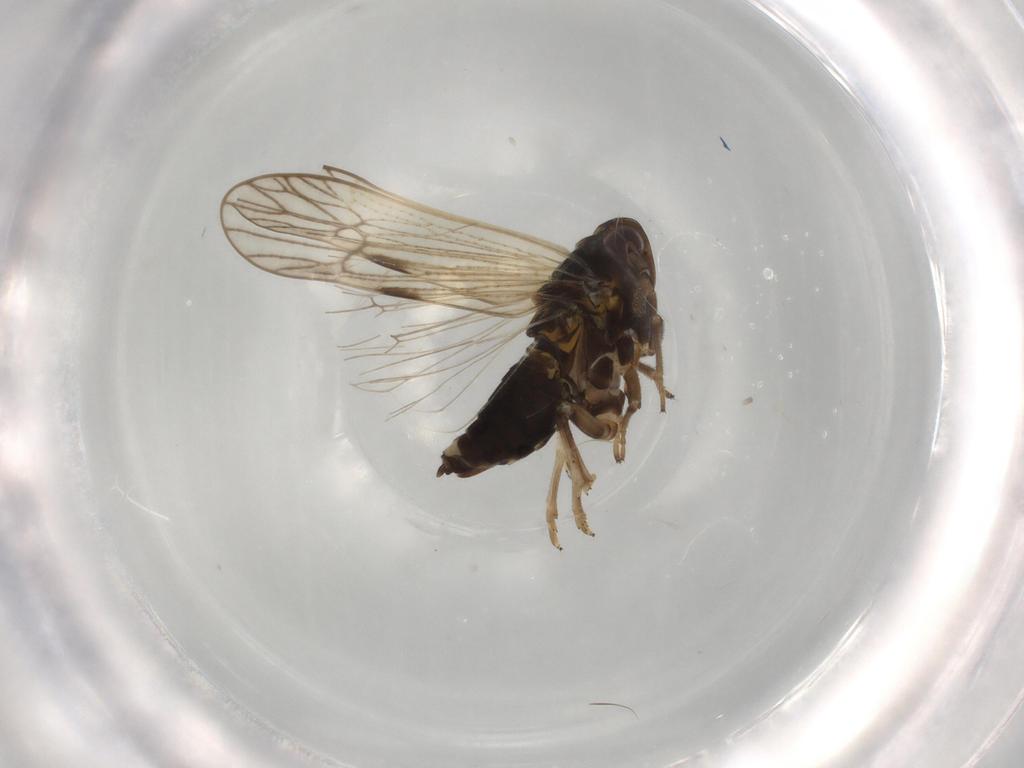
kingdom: Animalia
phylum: Arthropoda
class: Insecta
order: Hemiptera
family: Delphacidae
